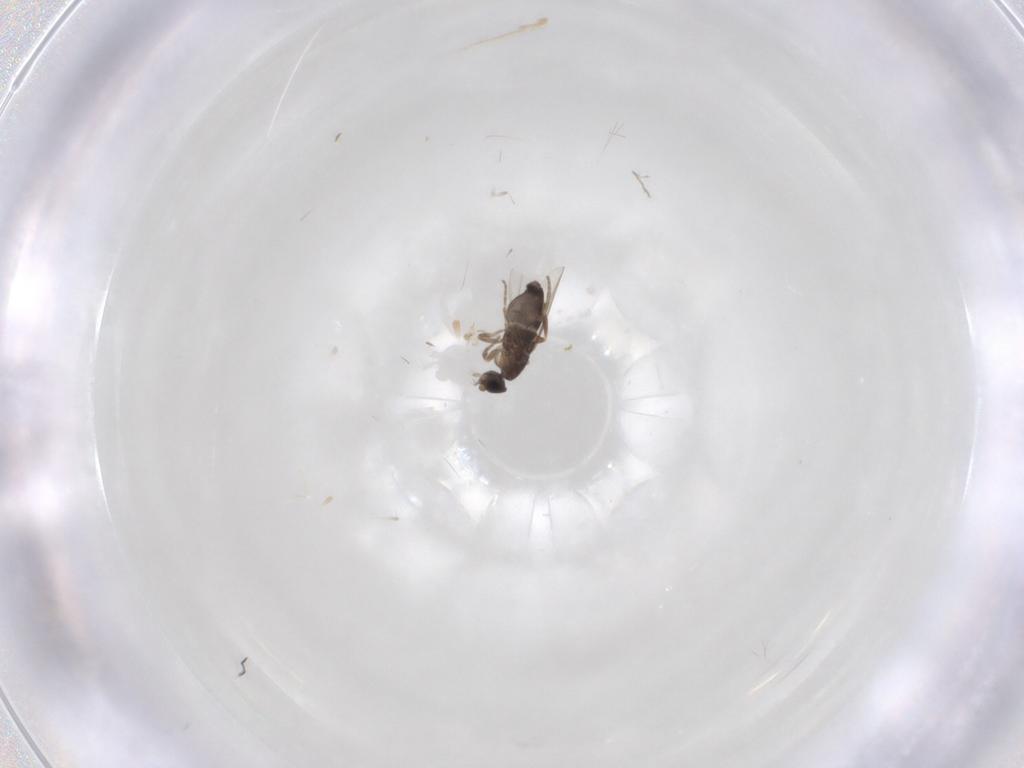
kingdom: Animalia
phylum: Arthropoda
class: Insecta
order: Diptera
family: Phoridae
